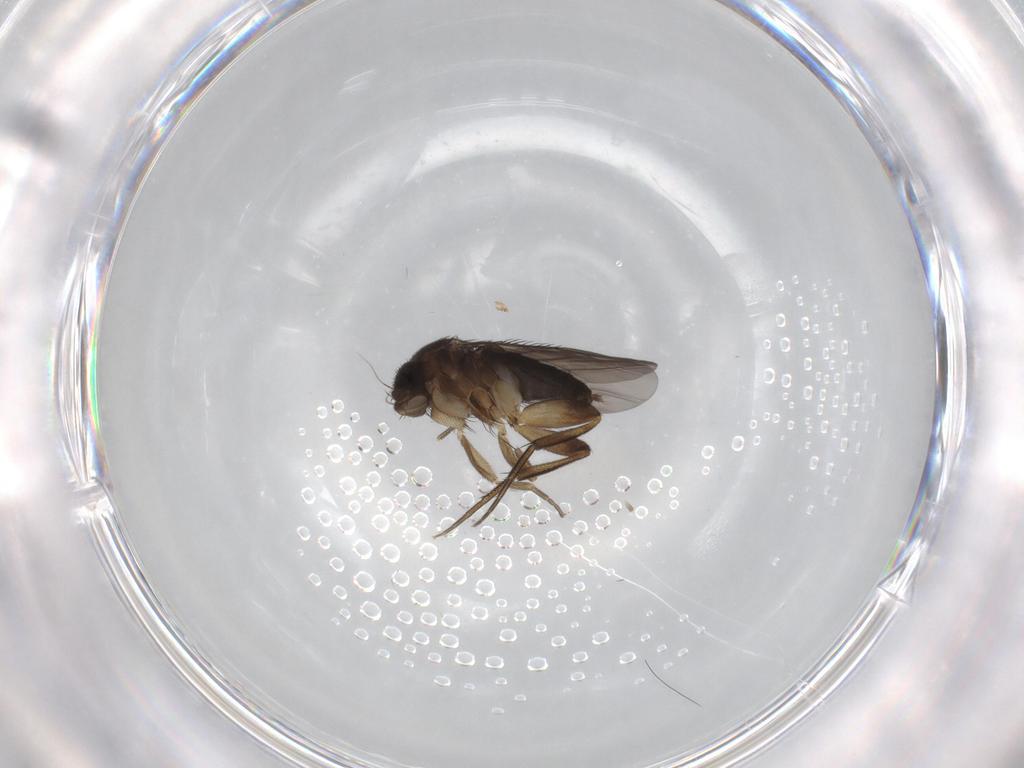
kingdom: Animalia
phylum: Arthropoda
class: Insecta
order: Diptera
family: Phoridae
